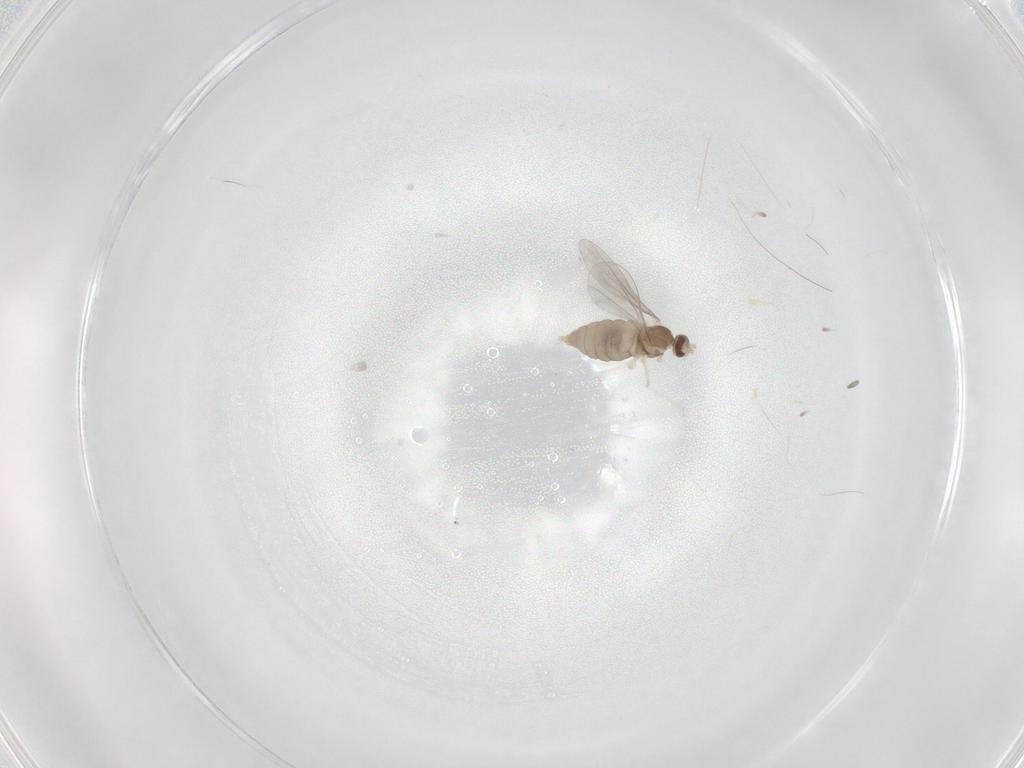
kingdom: Animalia
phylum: Arthropoda
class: Insecta
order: Diptera
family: Cecidomyiidae
